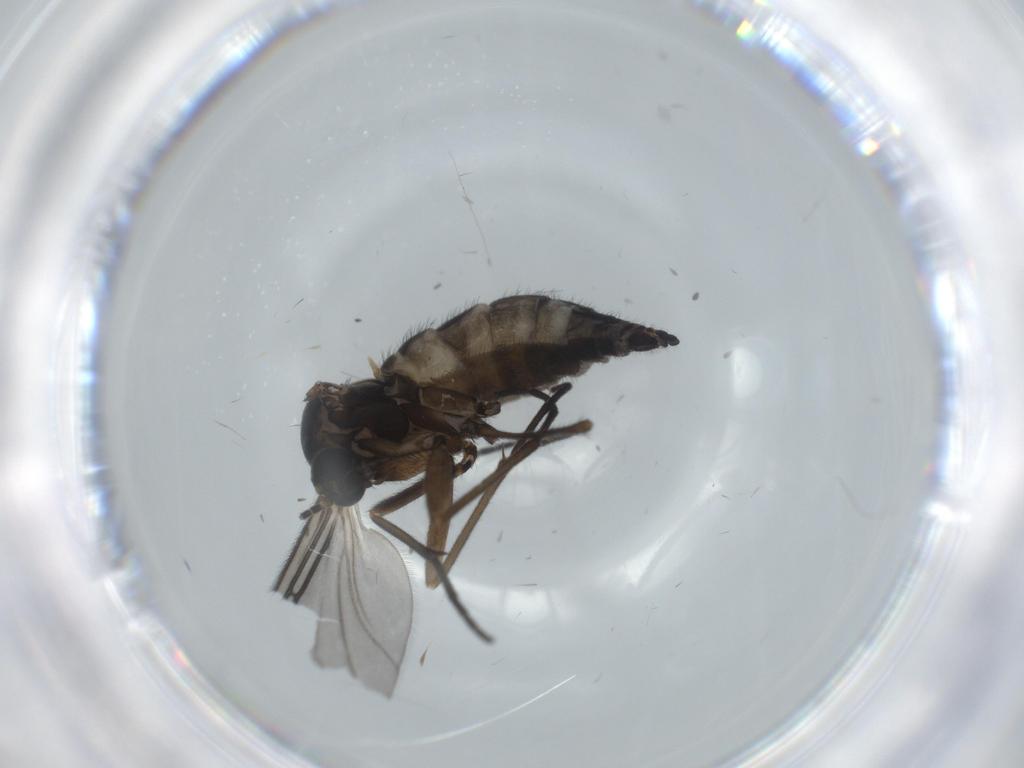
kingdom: Animalia
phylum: Arthropoda
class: Insecta
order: Diptera
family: Sciaridae
